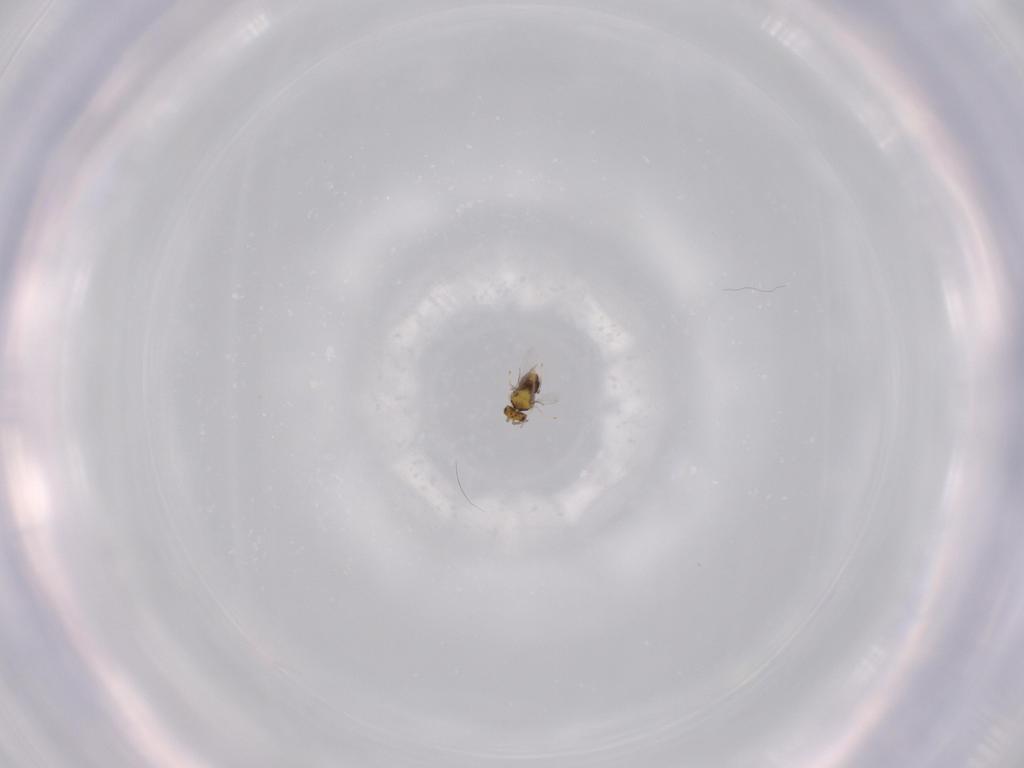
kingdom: Animalia
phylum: Arthropoda
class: Insecta
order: Hymenoptera
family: Aphelinidae
